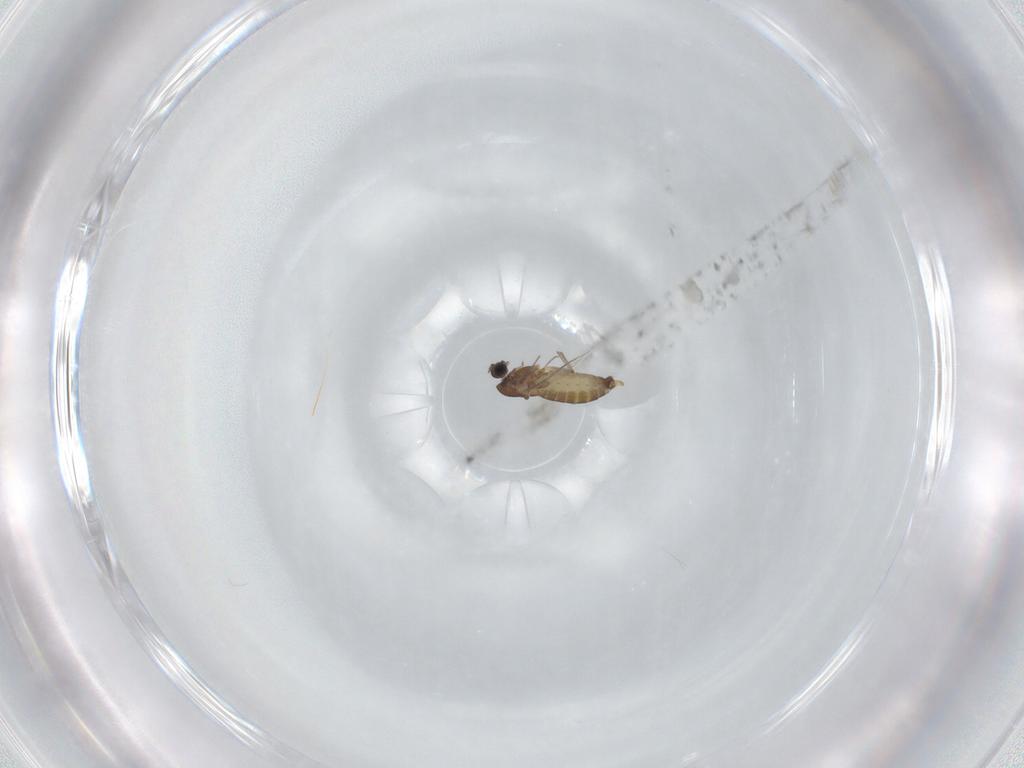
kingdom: Animalia
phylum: Arthropoda
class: Insecta
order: Diptera
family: Chironomidae
